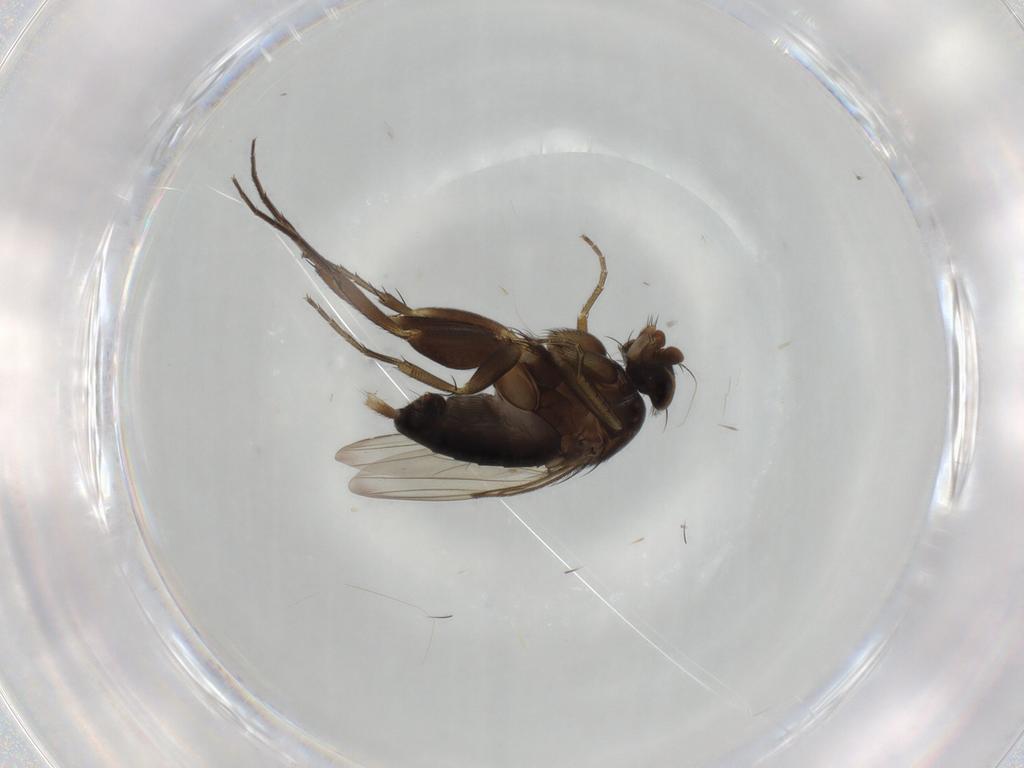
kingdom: Animalia
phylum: Arthropoda
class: Insecta
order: Diptera
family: Phoridae
